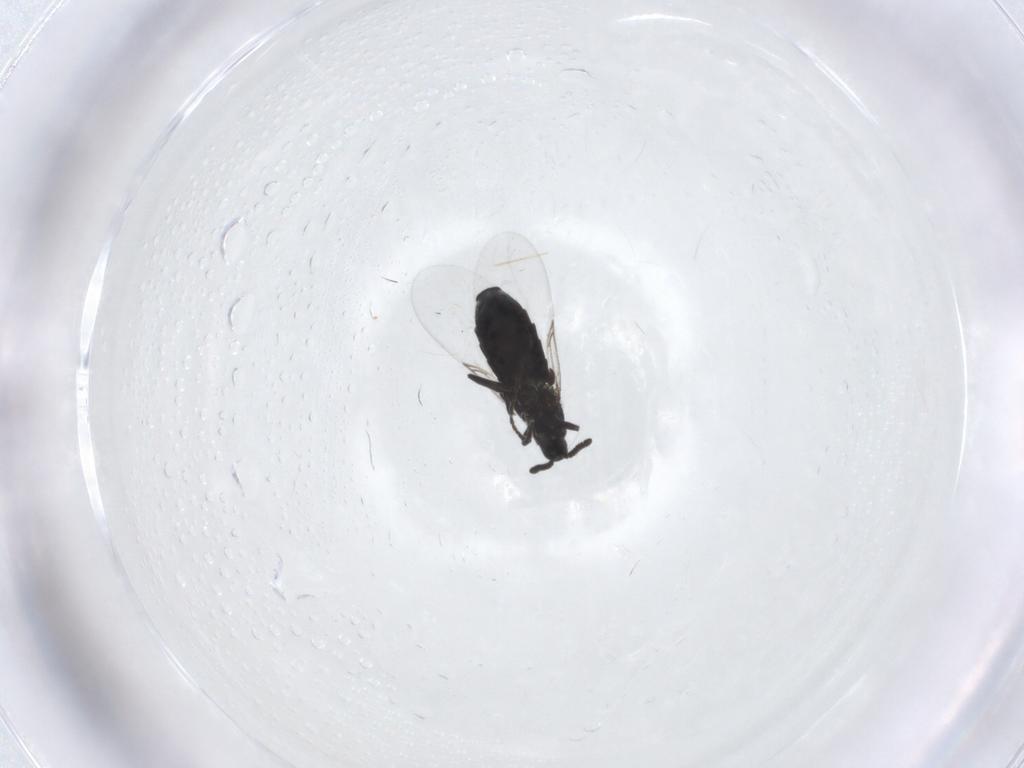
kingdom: Animalia
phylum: Arthropoda
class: Insecta
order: Diptera
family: Scatopsidae
